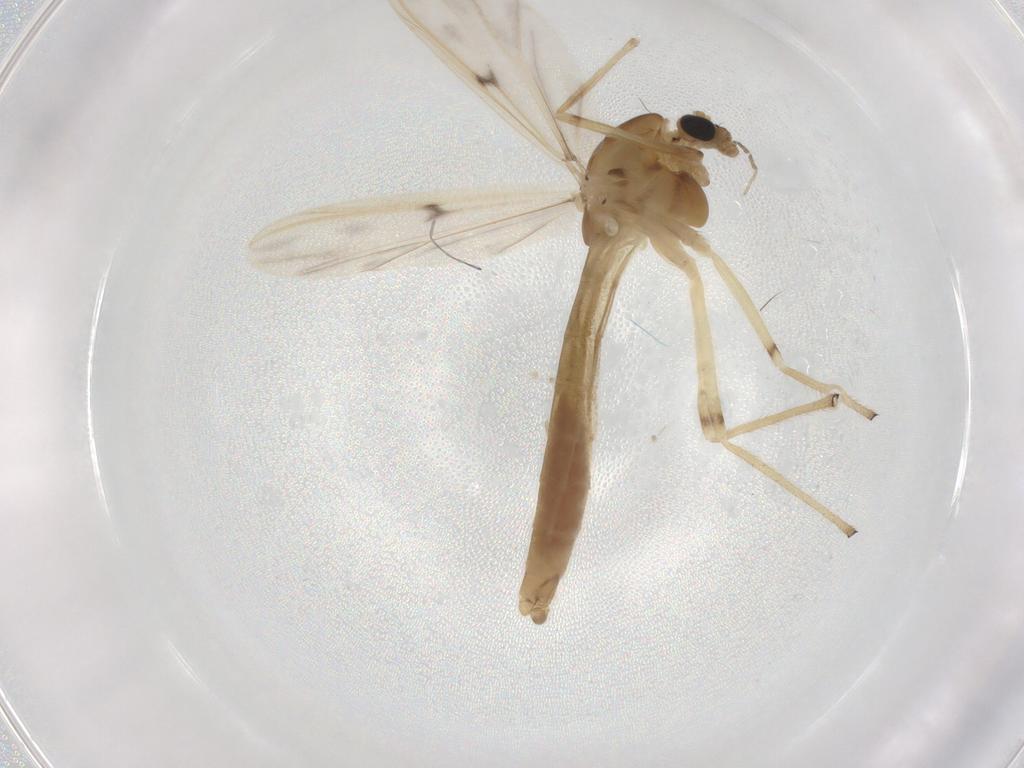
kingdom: Animalia
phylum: Arthropoda
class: Insecta
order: Diptera
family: Chironomidae
